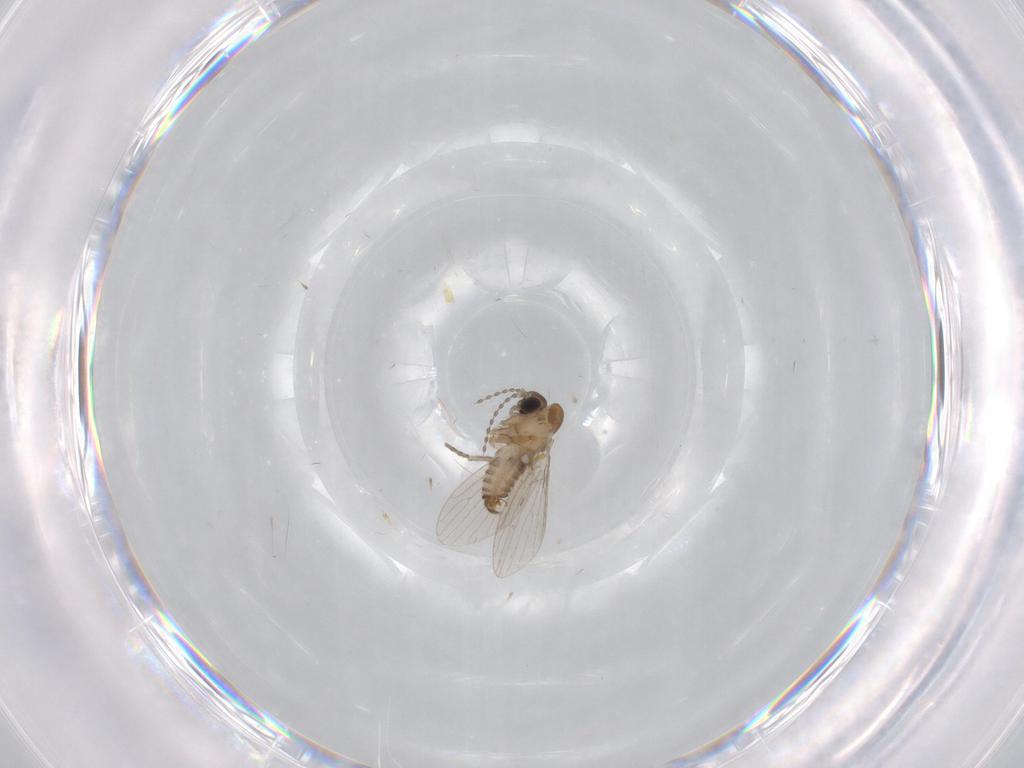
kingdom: Animalia
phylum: Arthropoda
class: Insecta
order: Diptera
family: Psychodidae
